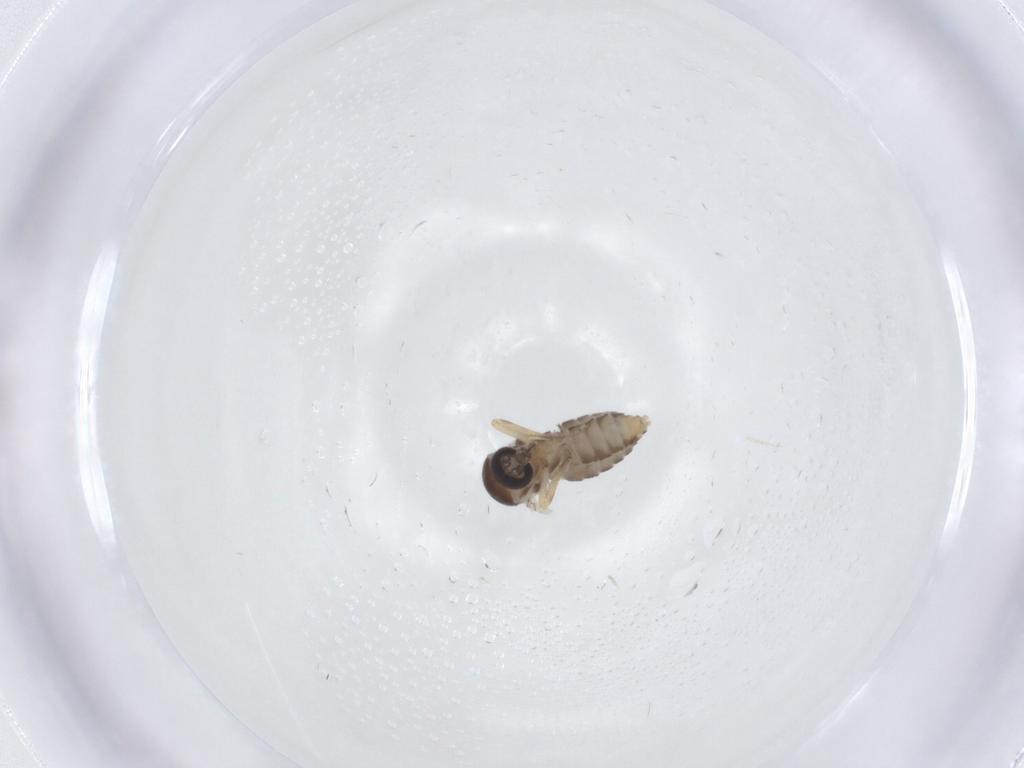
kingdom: Animalia
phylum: Arthropoda
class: Insecta
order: Diptera
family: Ceratopogonidae
